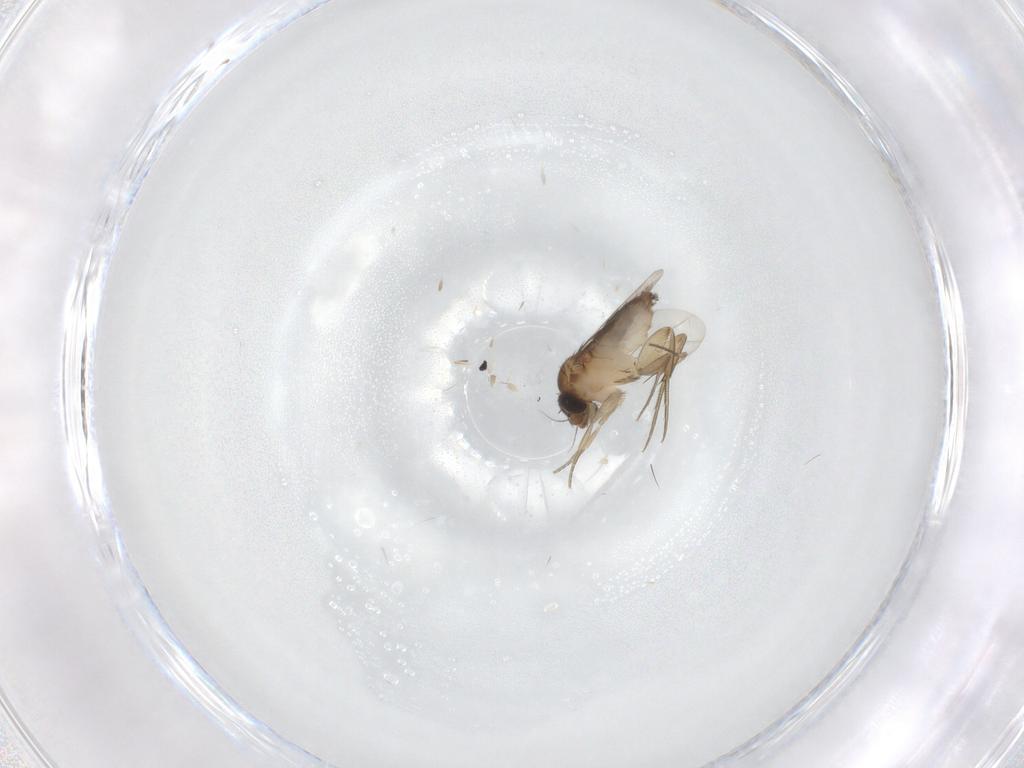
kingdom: Animalia
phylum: Arthropoda
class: Insecta
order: Diptera
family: Phoridae
